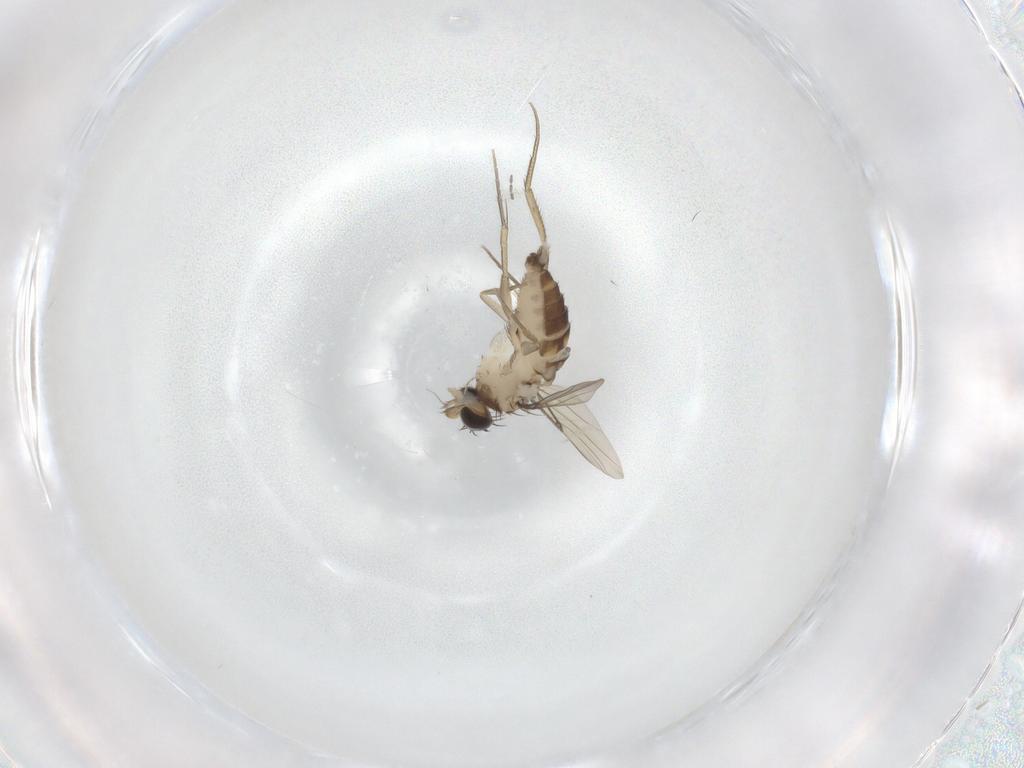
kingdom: Animalia
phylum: Arthropoda
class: Insecta
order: Diptera
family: Phoridae
